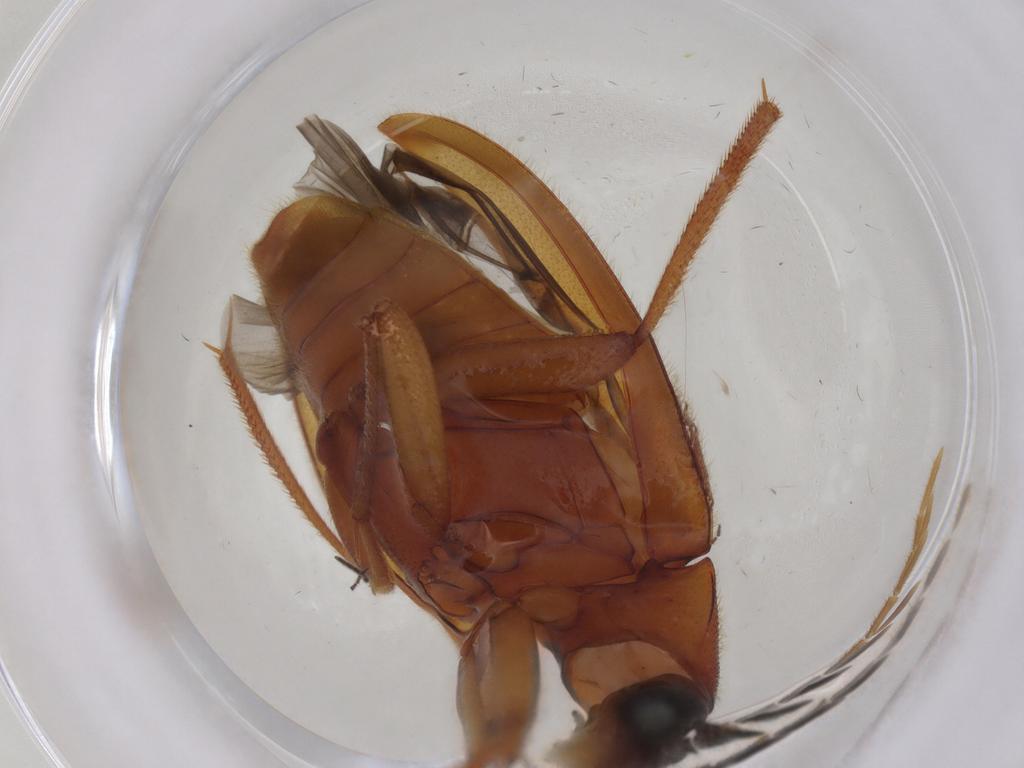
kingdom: Animalia
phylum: Arthropoda
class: Insecta
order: Coleoptera
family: Ptilodactylidae
